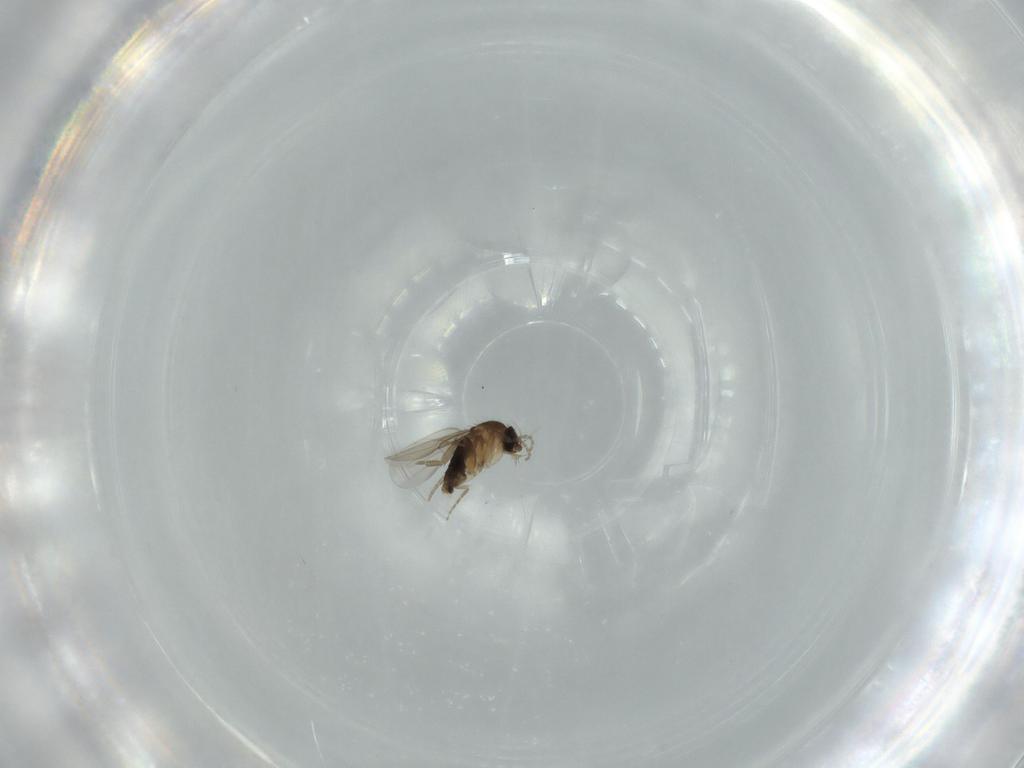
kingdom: Animalia
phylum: Arthropoda
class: Insecta
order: Diptera
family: Phoridae
